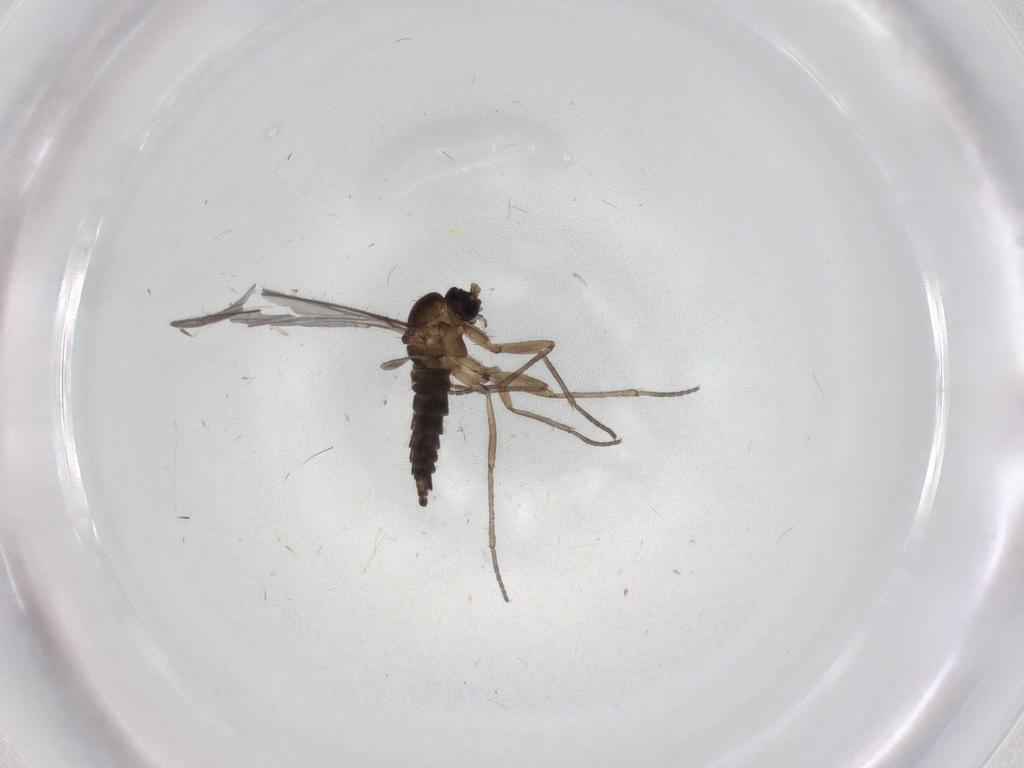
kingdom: Animalia
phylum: Arthropoda
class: Insecta
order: Diptera
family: Sciaridae
